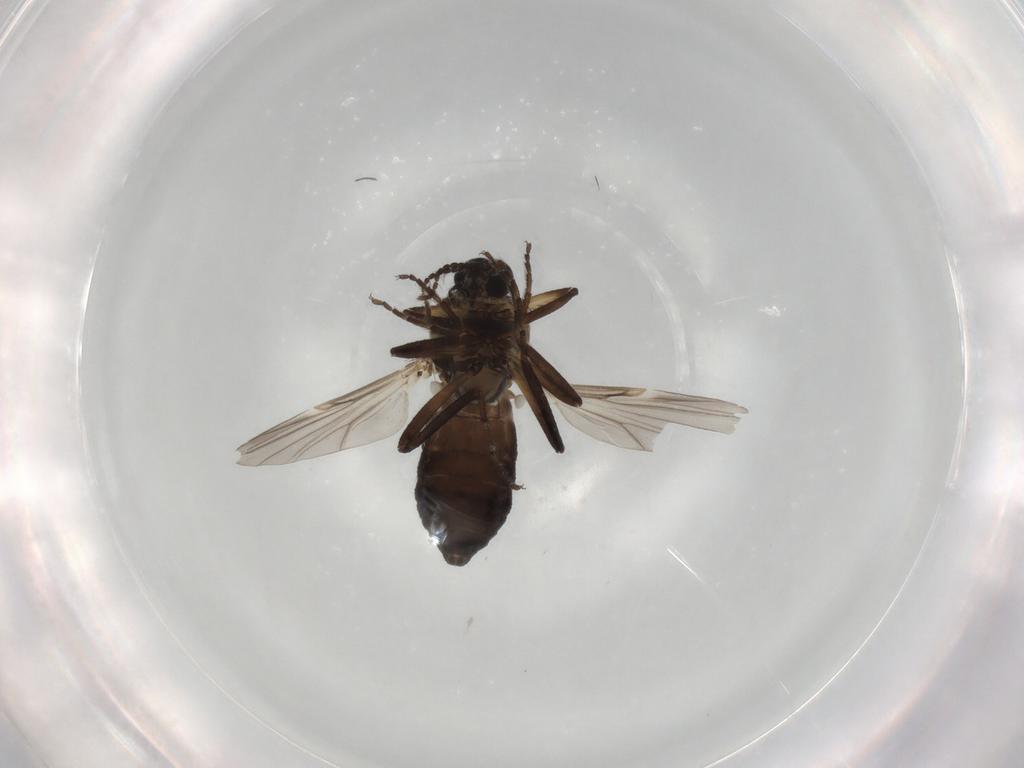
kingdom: Animalia
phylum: Arthropoda
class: Insecta
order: Diptera
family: Ceratopogonidae
